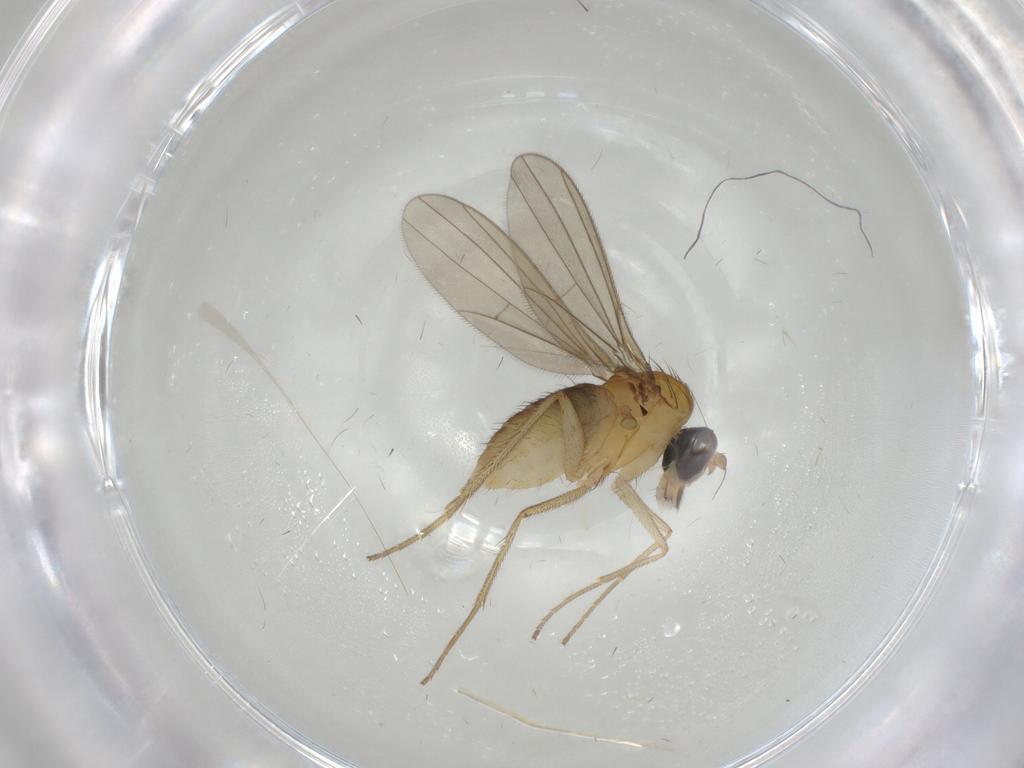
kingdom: Animalia
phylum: Arthropoda
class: Insecta
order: Diptera
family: Dolichopodidae
